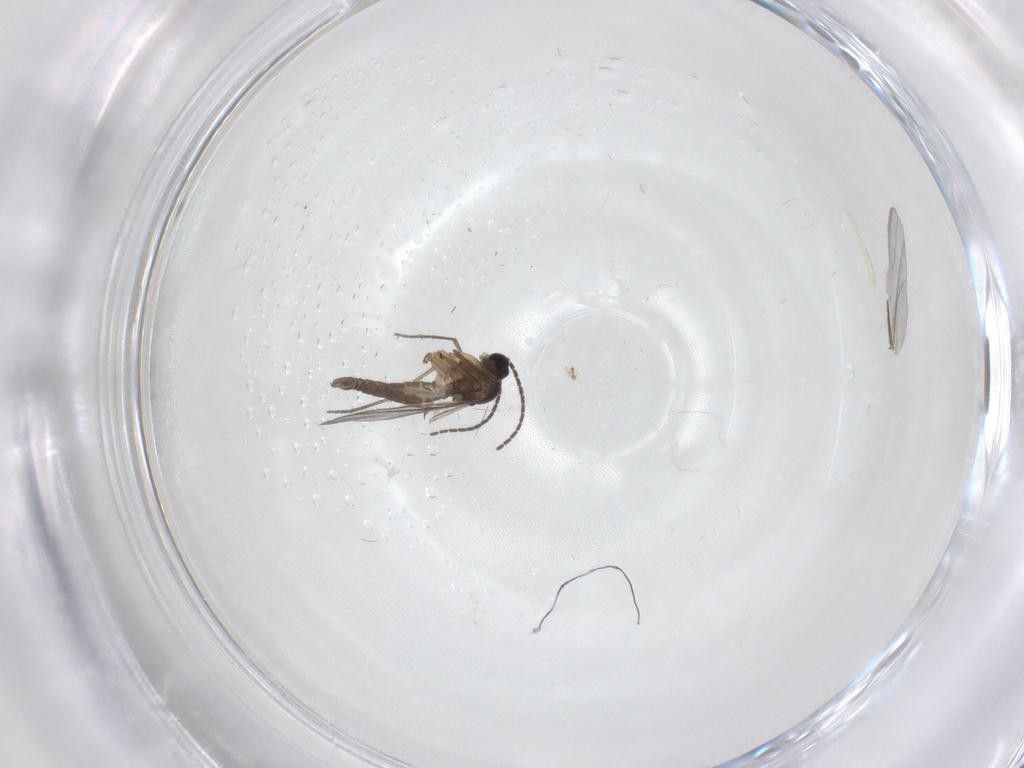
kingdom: Animalia
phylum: Arthropoda
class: Insecta
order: Diptera
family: Sciaridae
